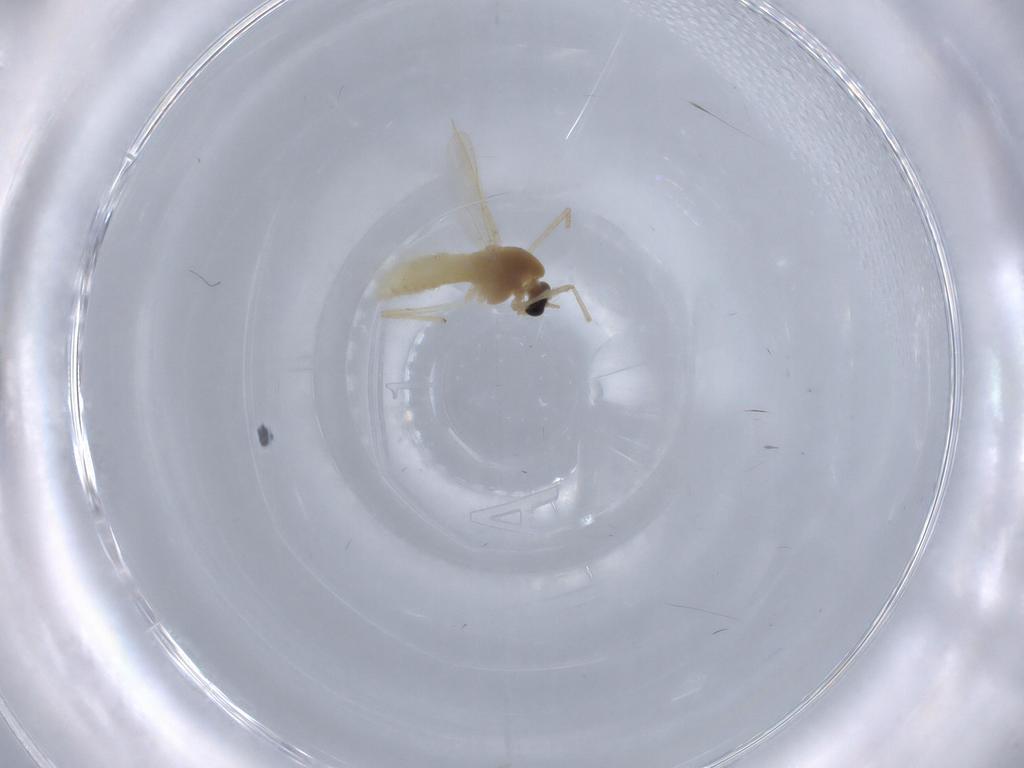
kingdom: Animalia
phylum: Arthropoda
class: Insecta
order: Diptera
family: Chironomidae
